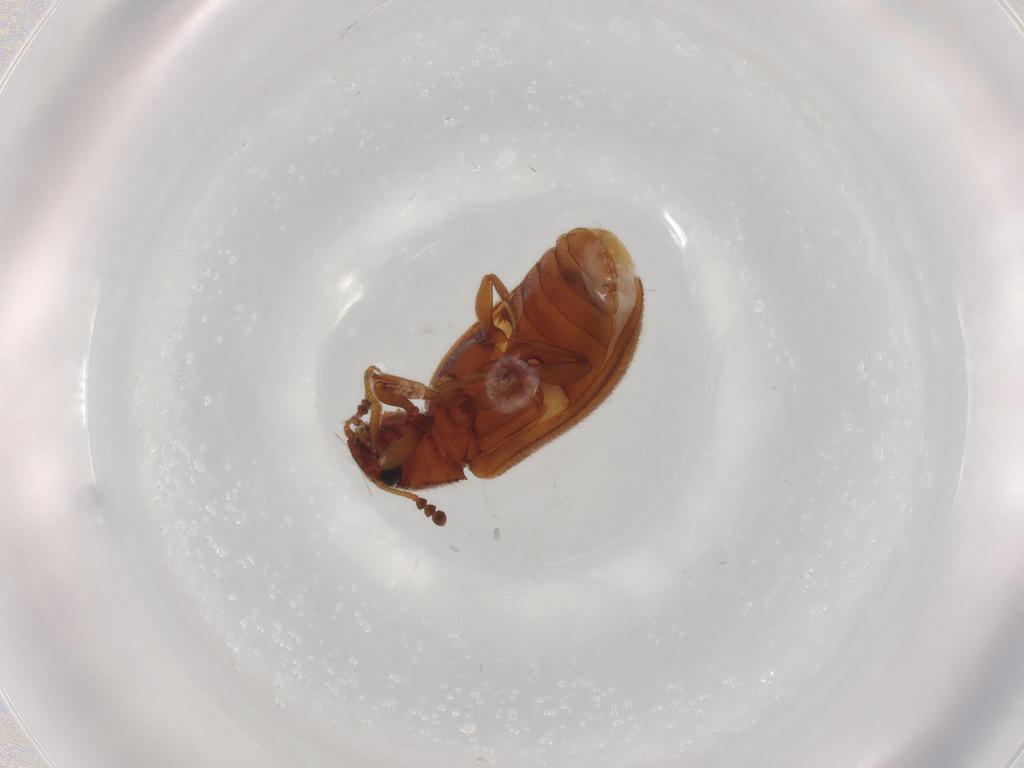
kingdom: Animalia
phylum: Arthropoda
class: Insecta
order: Coleoptera
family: Tenebrionidae
